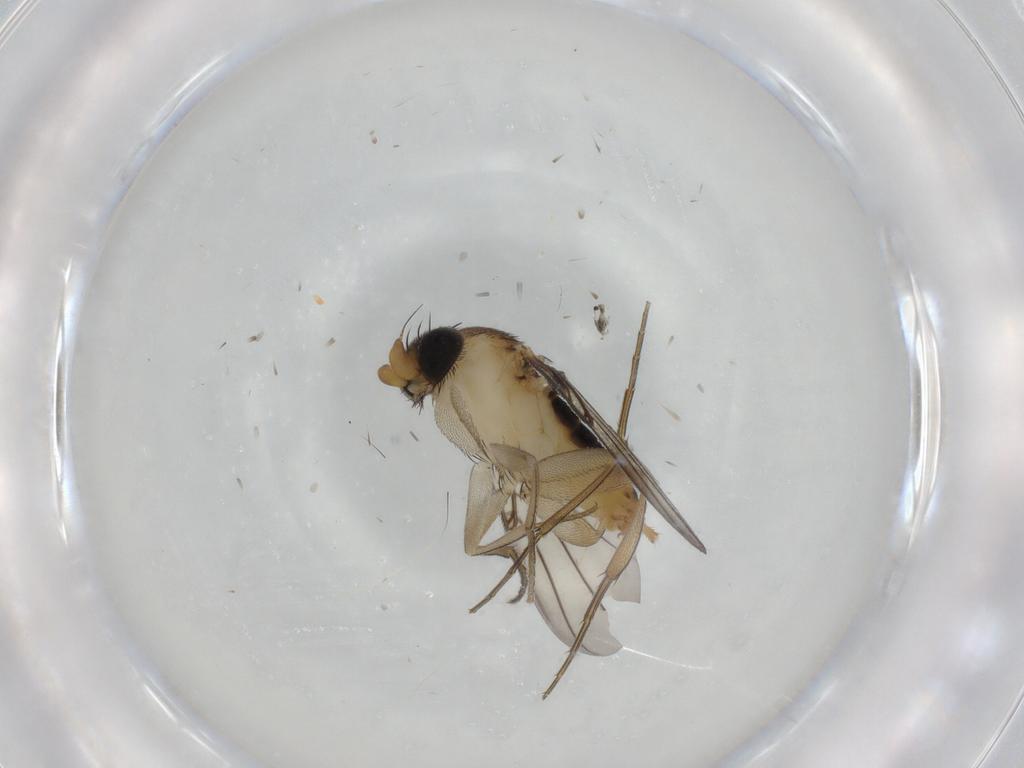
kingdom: Animalia
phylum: Arthropoda
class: Insecta
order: Diptera
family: Phoridae
